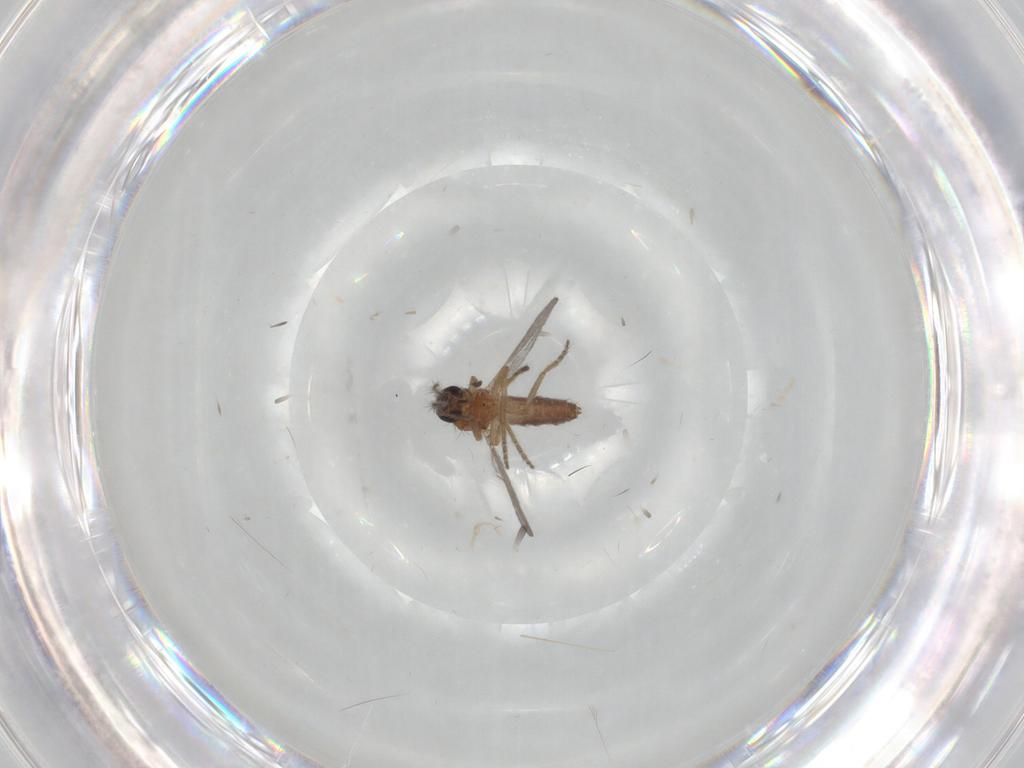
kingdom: Animalia
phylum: Arthropoda
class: Insecta
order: Diptera
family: Ceratopogonidae
